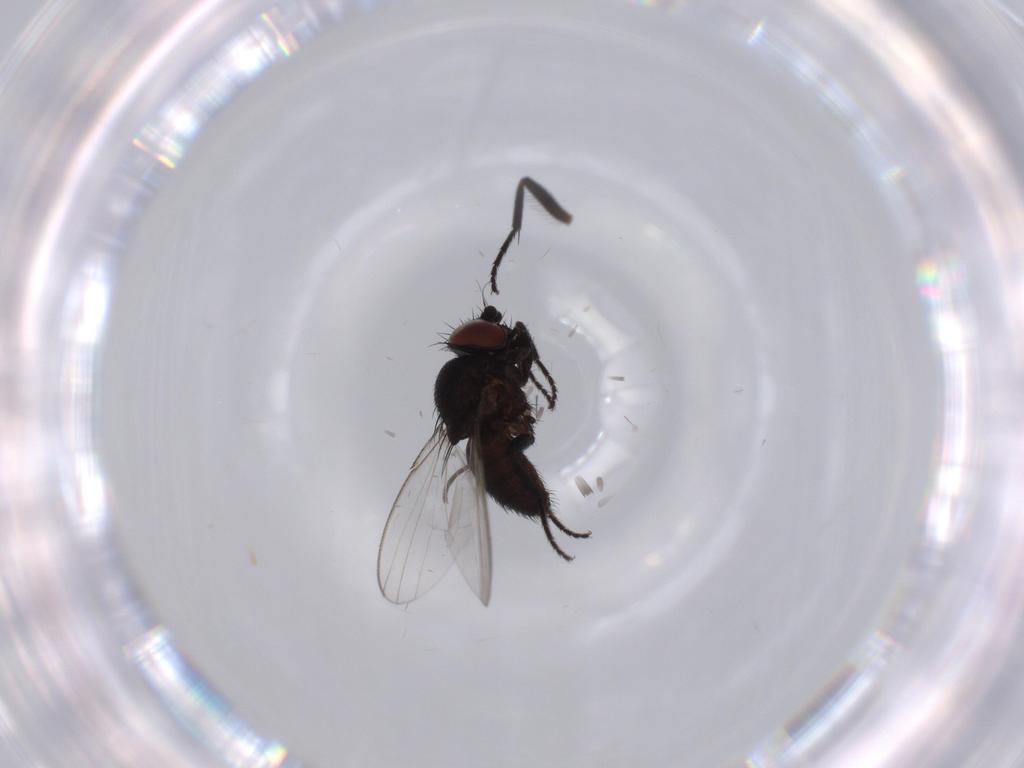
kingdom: Animalia
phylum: Arthropoda
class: Insecta
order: Diptera
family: Milichiidae
